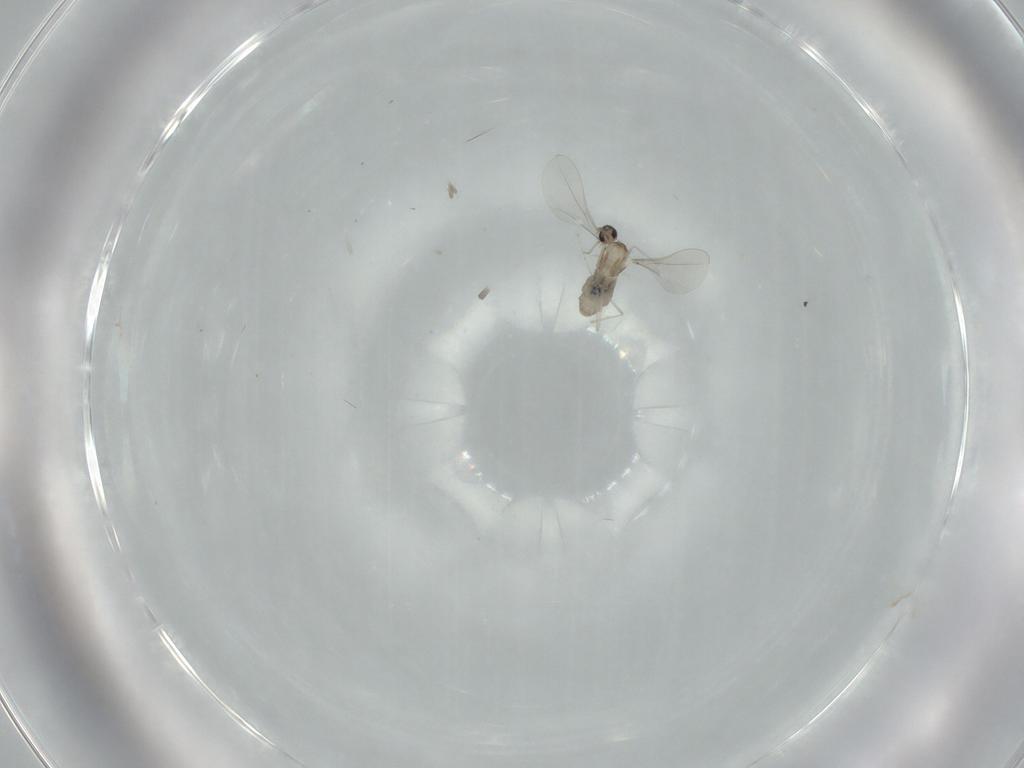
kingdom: Animalia
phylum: Arthropoda
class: Insecta
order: Diptera
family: Cecidomyiidae
